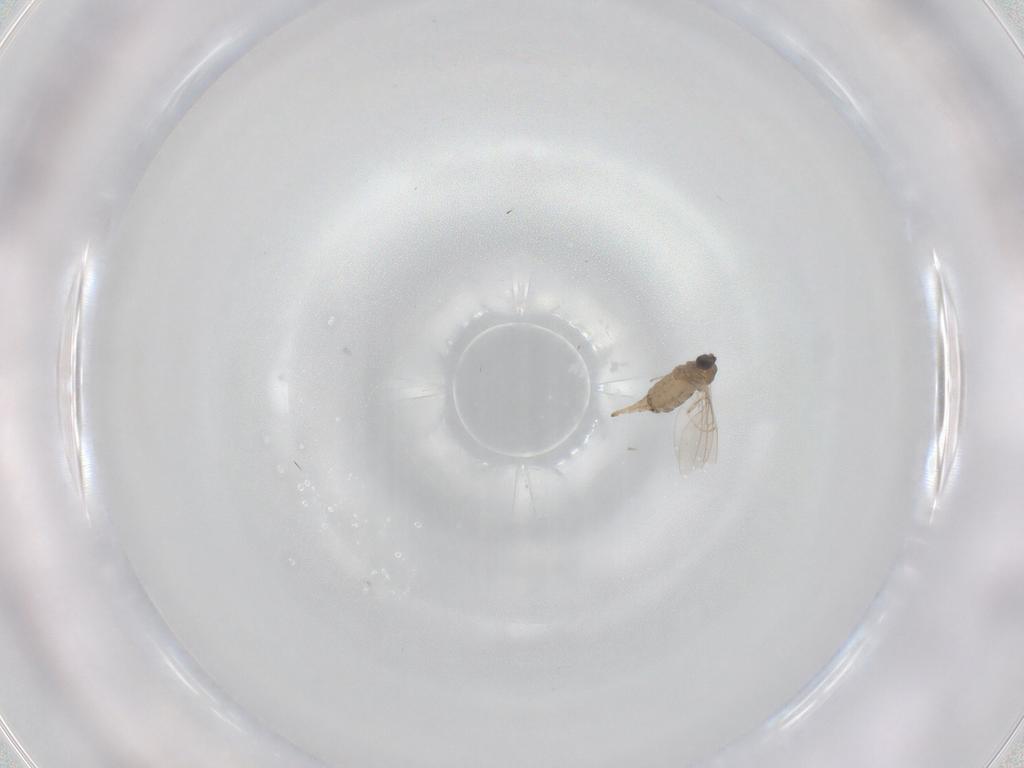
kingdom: Animalia
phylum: Arthropoda
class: Insecta
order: Diptera
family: Cecidomyiidae
